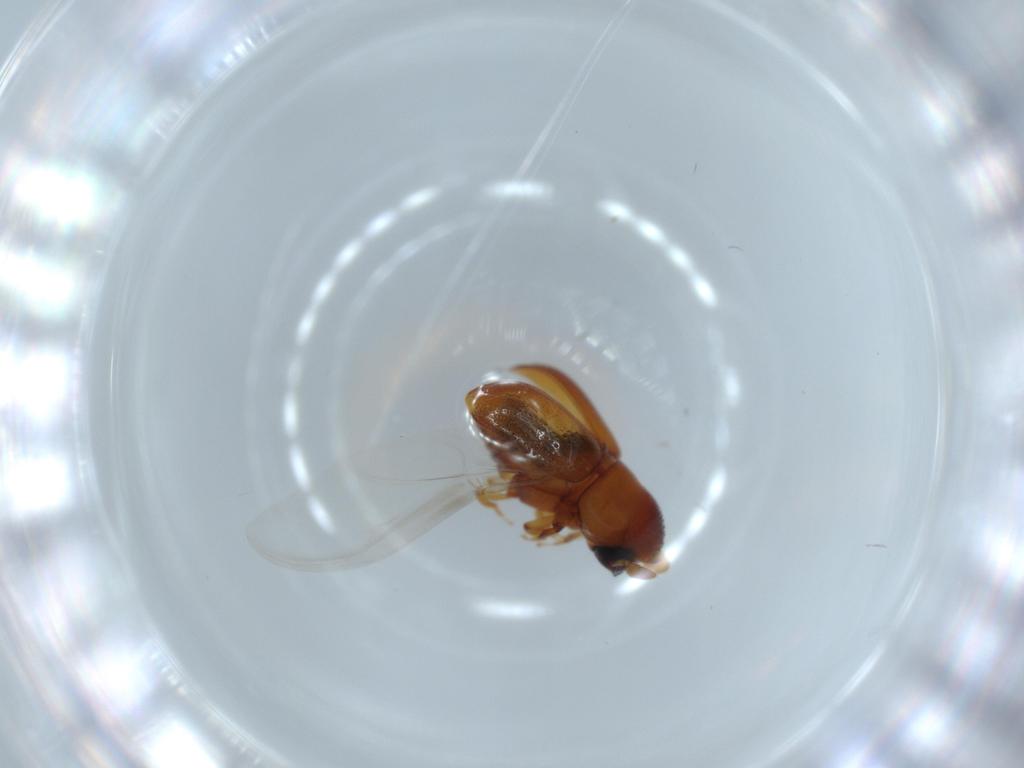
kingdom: Animalia
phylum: Arthropoda
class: Insecta
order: Coleoptera
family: Curculionidae
